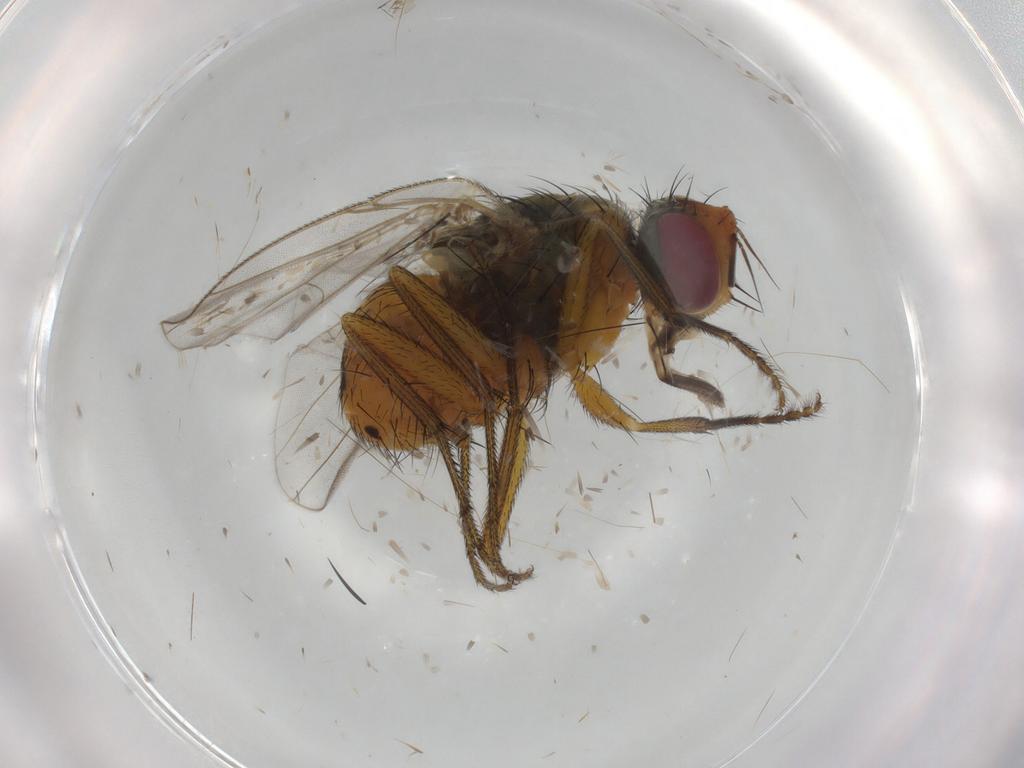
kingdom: Animalia
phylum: Arthropoda
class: Insecta
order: Diptera
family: Muscidae
